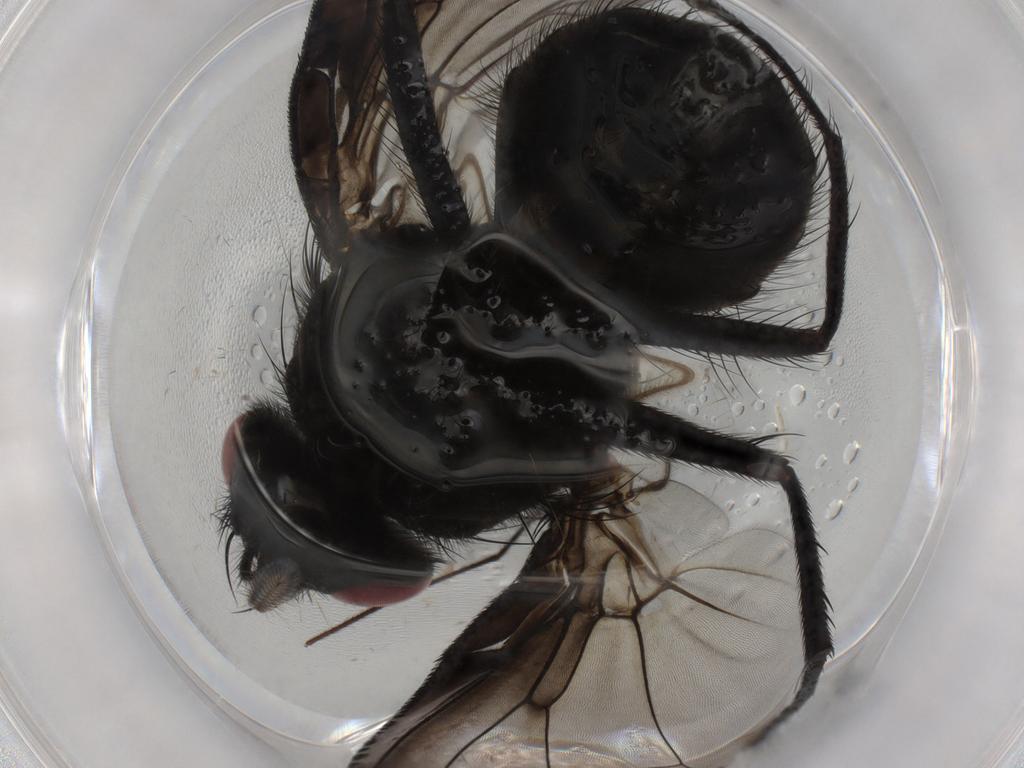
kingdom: Animalia
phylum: Arthropoda
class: Insecta
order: Diptera
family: Muscidae
